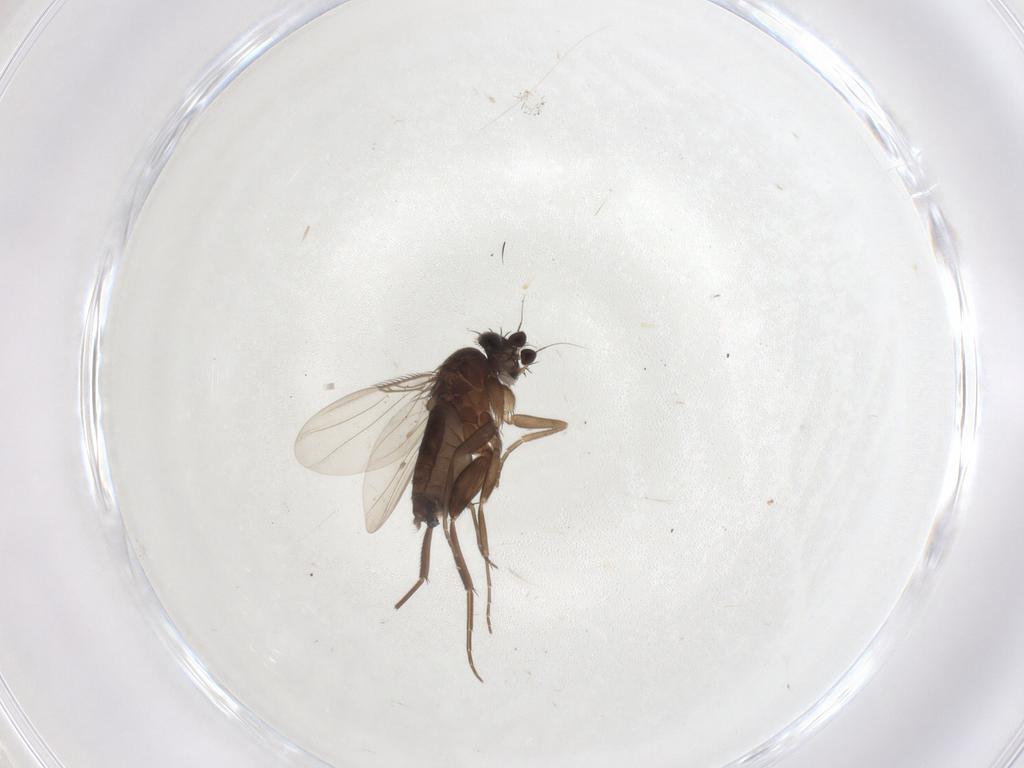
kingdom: Animalia
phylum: Arthropoda
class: Insecta
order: Diptera
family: Phoridae
